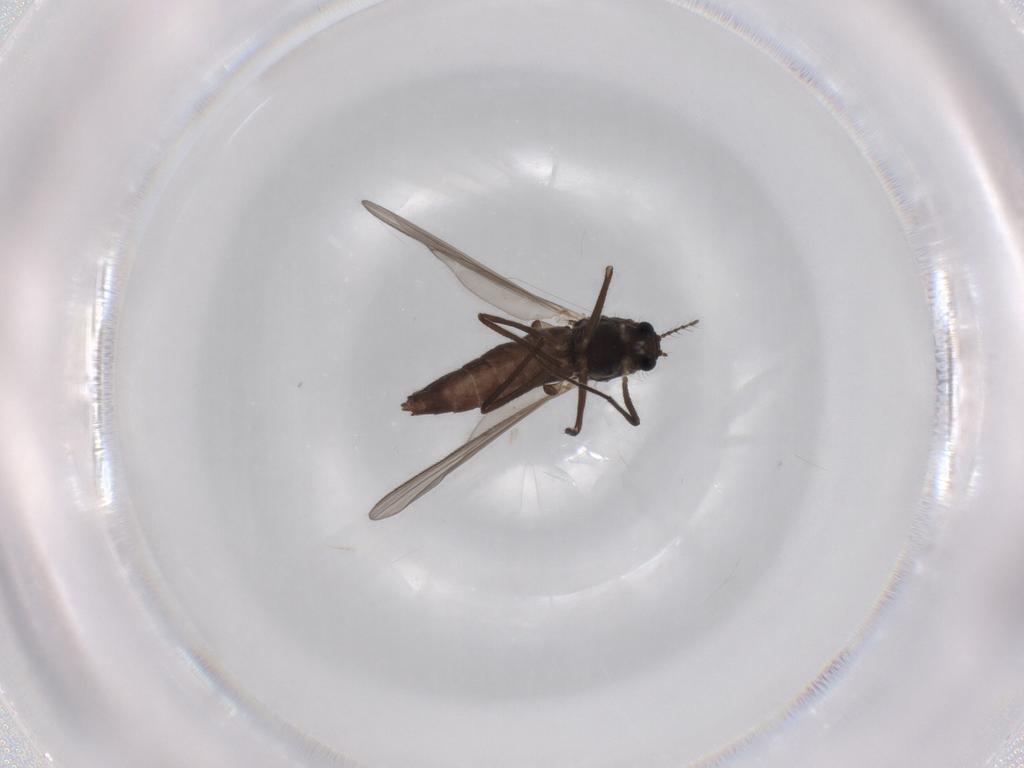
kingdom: Animalia
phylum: Arthropoda
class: Insecta
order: Diptera
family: Chironomidae
